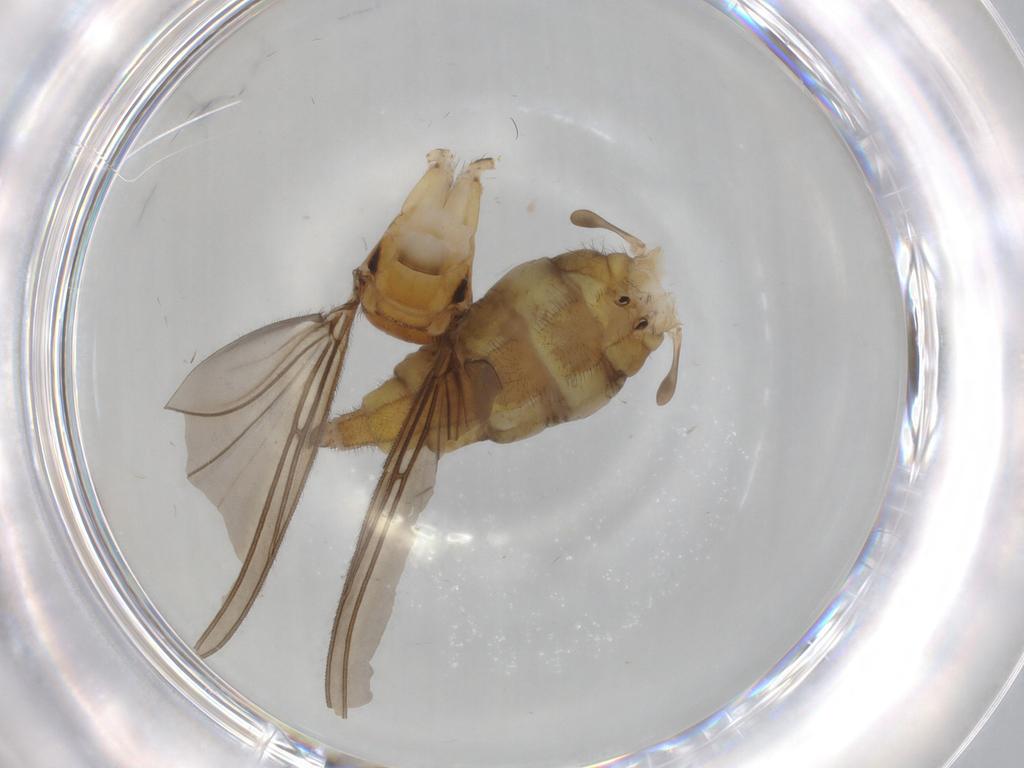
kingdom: Animalia
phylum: Arthropoda
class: Insecta
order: Diptera
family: Sciaridae
